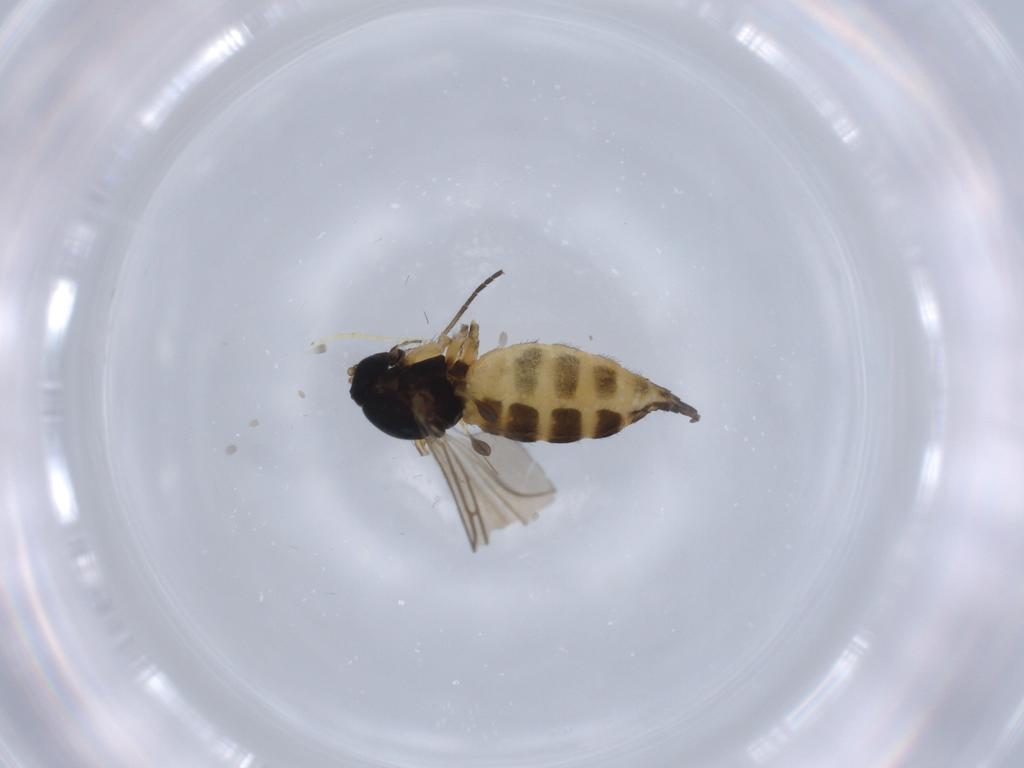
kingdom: Animalia
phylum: Arthropoda
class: Insecta
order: Diptera
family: Sciaridae
